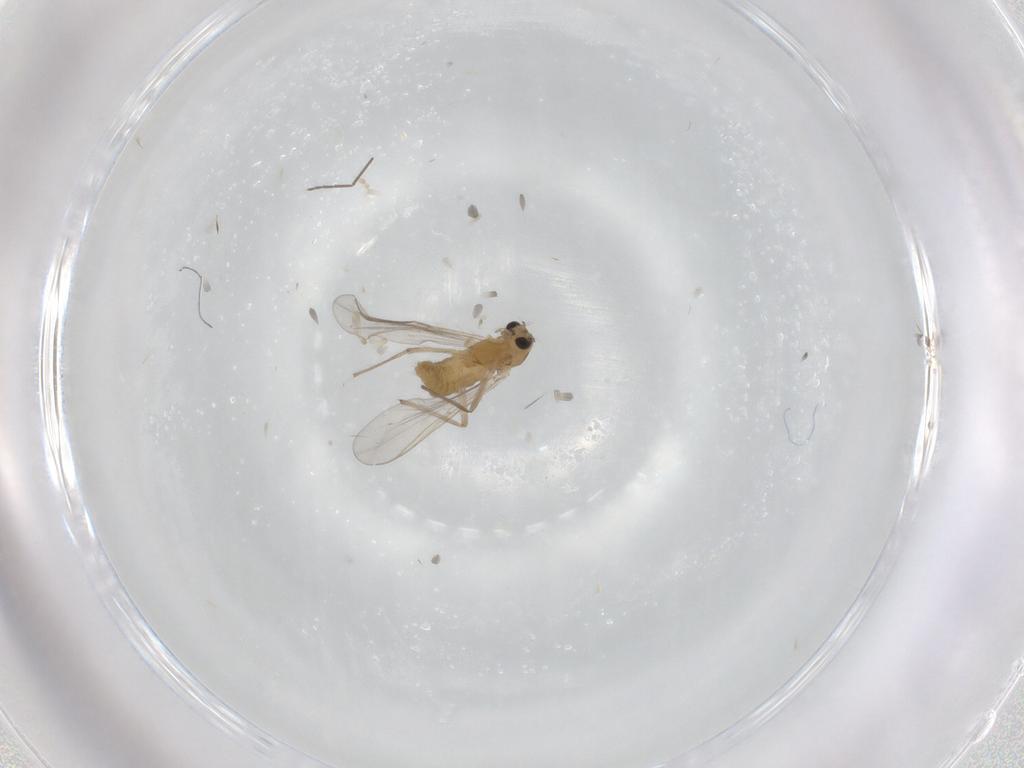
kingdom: Animalia
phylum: Arthropoda
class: Insecta
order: Diptera
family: Chironomidae
